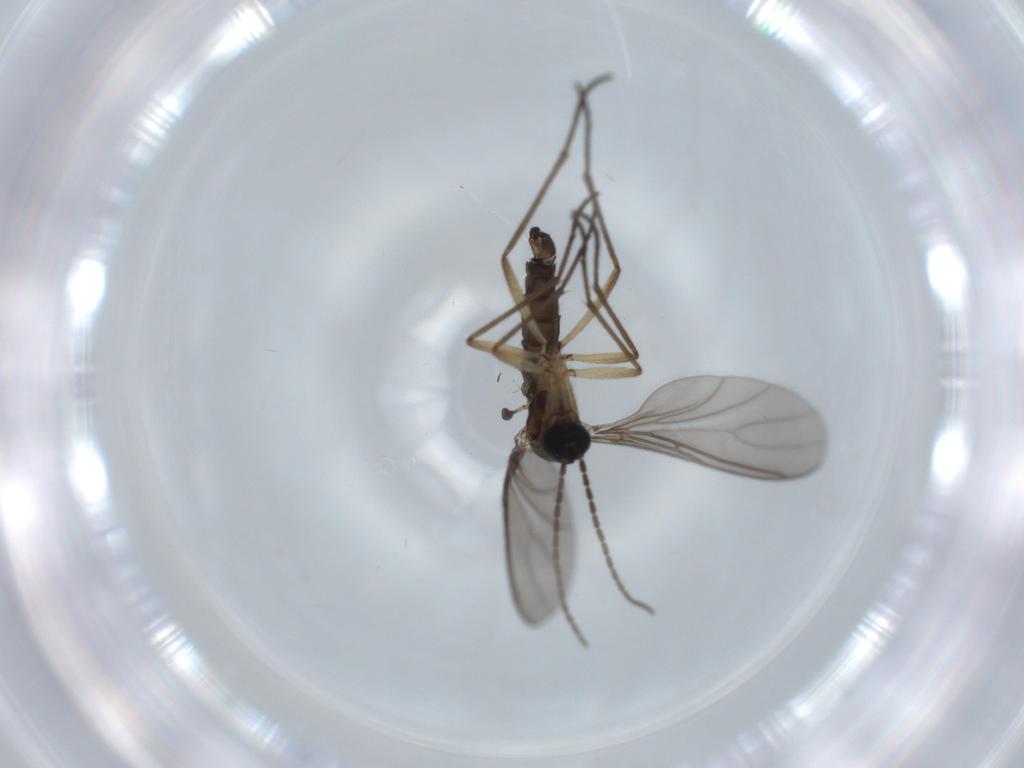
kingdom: Animalia
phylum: Arthropoda
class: Insecta
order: Diptera
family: Sciaridae
